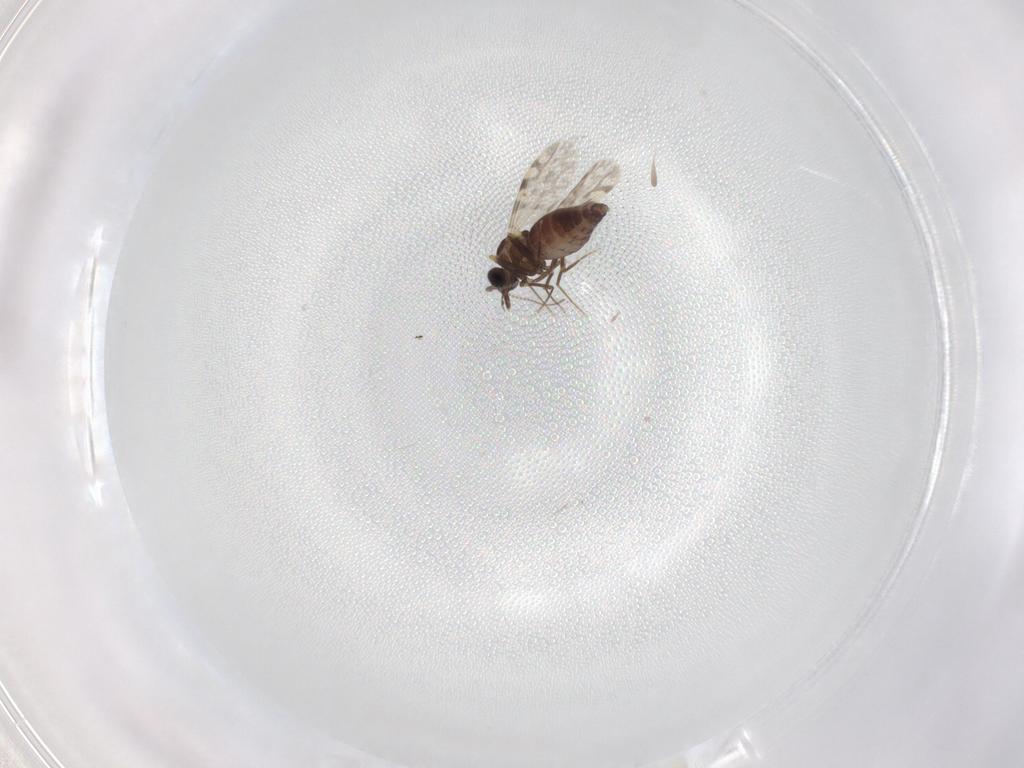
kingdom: Animalia
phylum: Arthropoda
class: Insecta
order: Diptera
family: Ceratopogonidae
